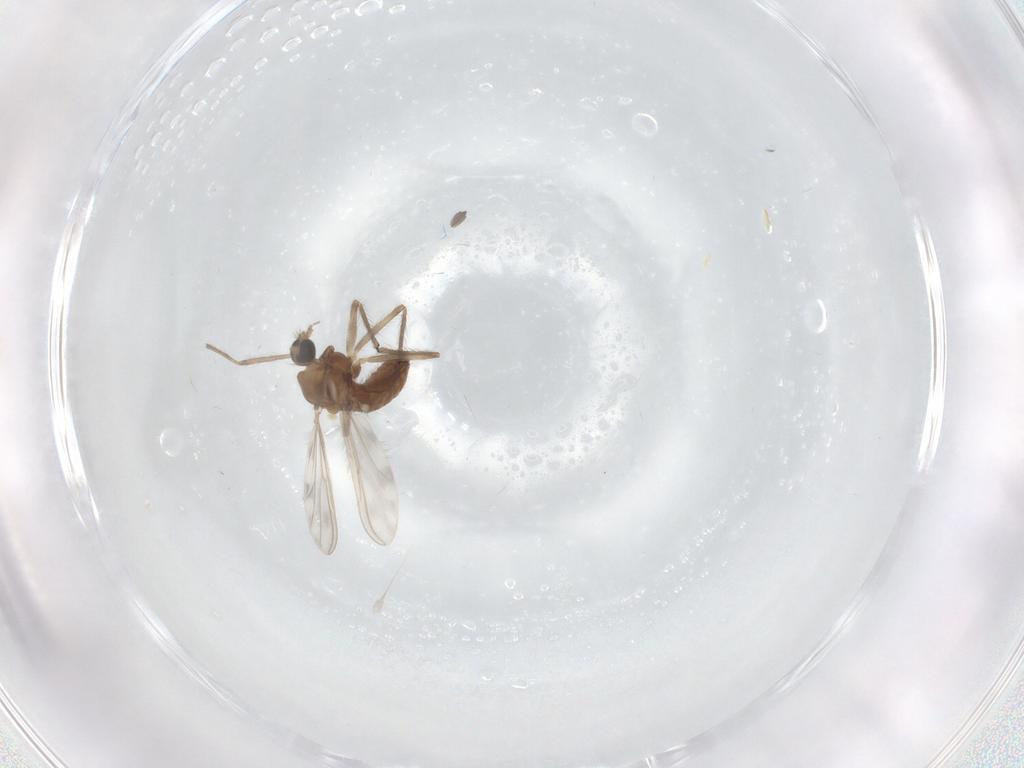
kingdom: Animalia
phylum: Arthropoda
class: Insecta
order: Diptera
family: Chironomidae
